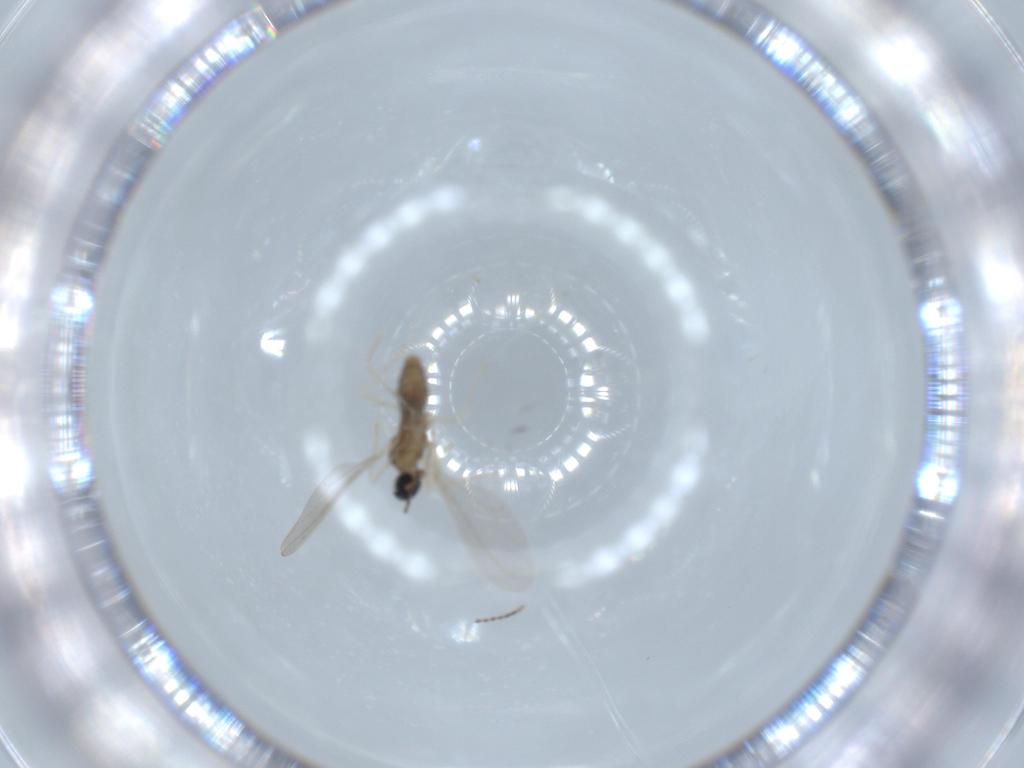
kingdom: Animalia
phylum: Arthropoda
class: Insecta
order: Diptera
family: Cecidomyiidae
